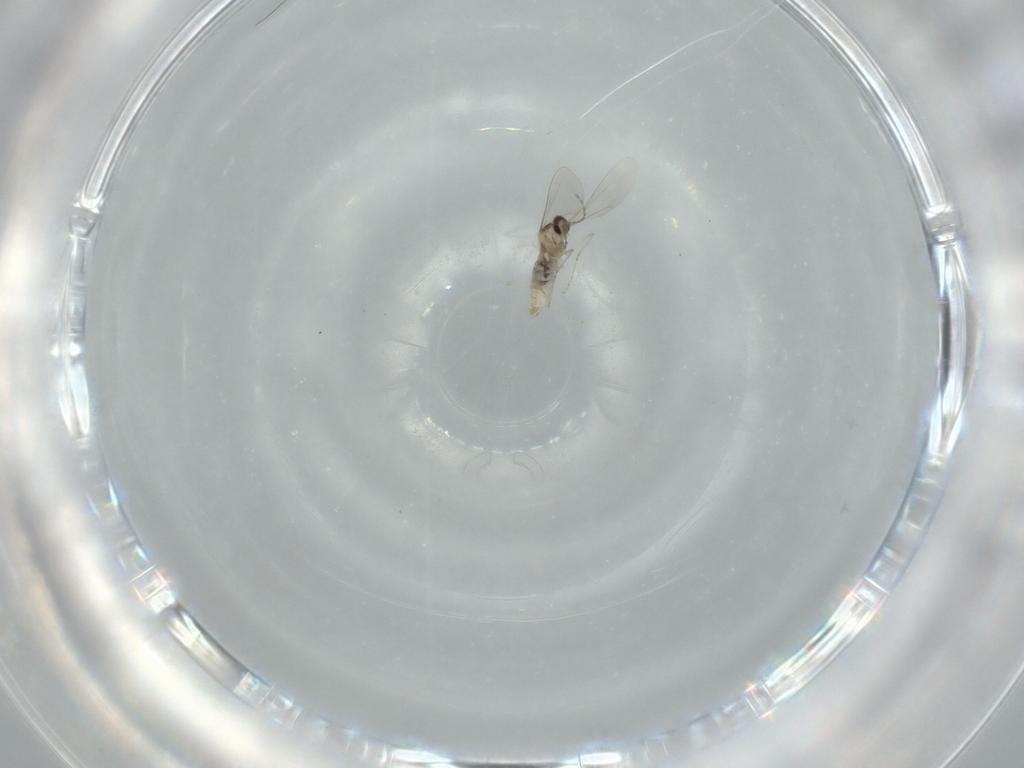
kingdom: Animalia
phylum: Arthropoda
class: Insecta
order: Diptera
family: Cecidomyiidae
